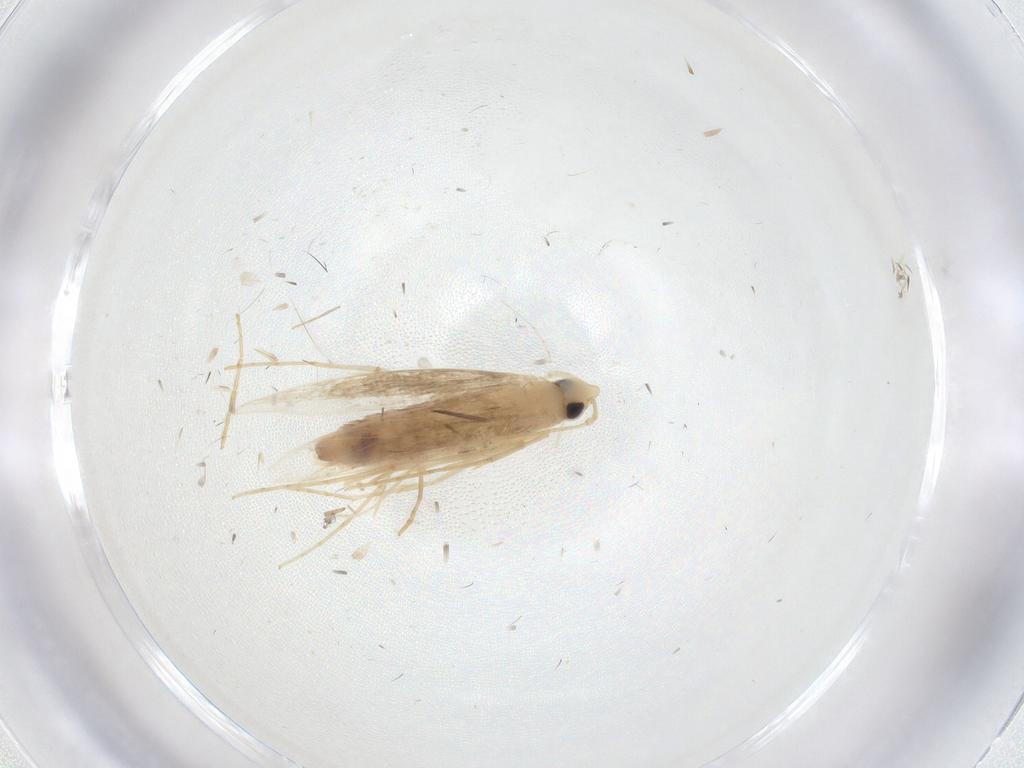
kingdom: Animalia
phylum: Arthropoda
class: Insecta
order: Lepidoptera
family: Tineidae
